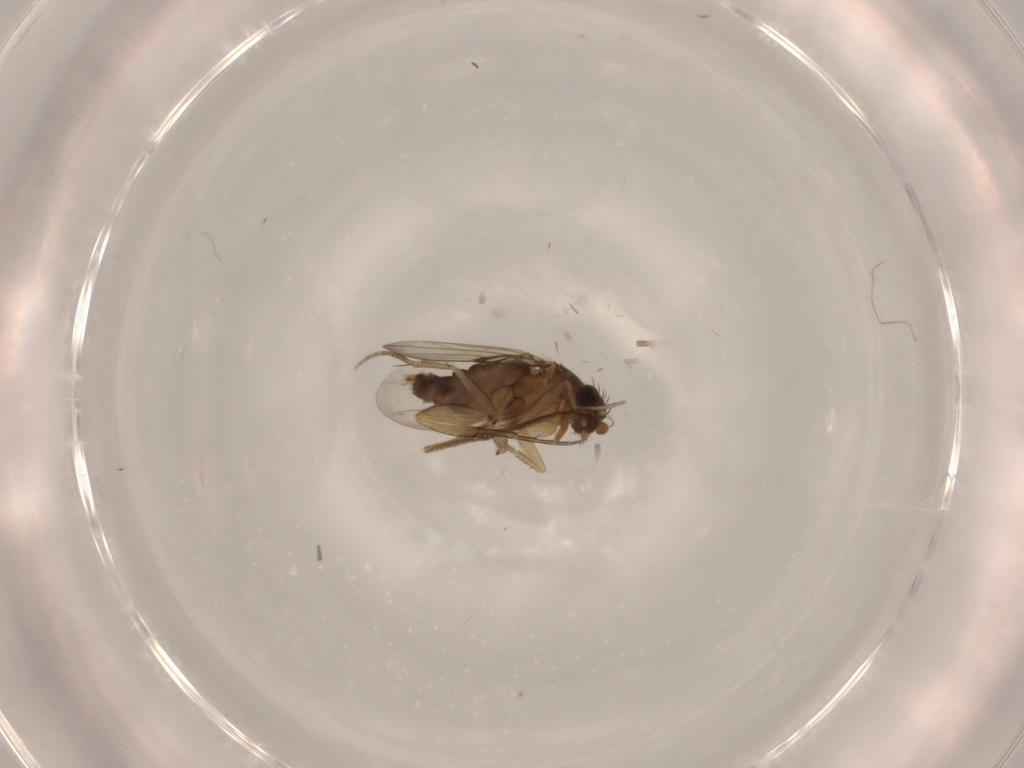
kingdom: Animalia
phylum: Arthropoda
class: Insecta
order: Diptera
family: Phoridae
